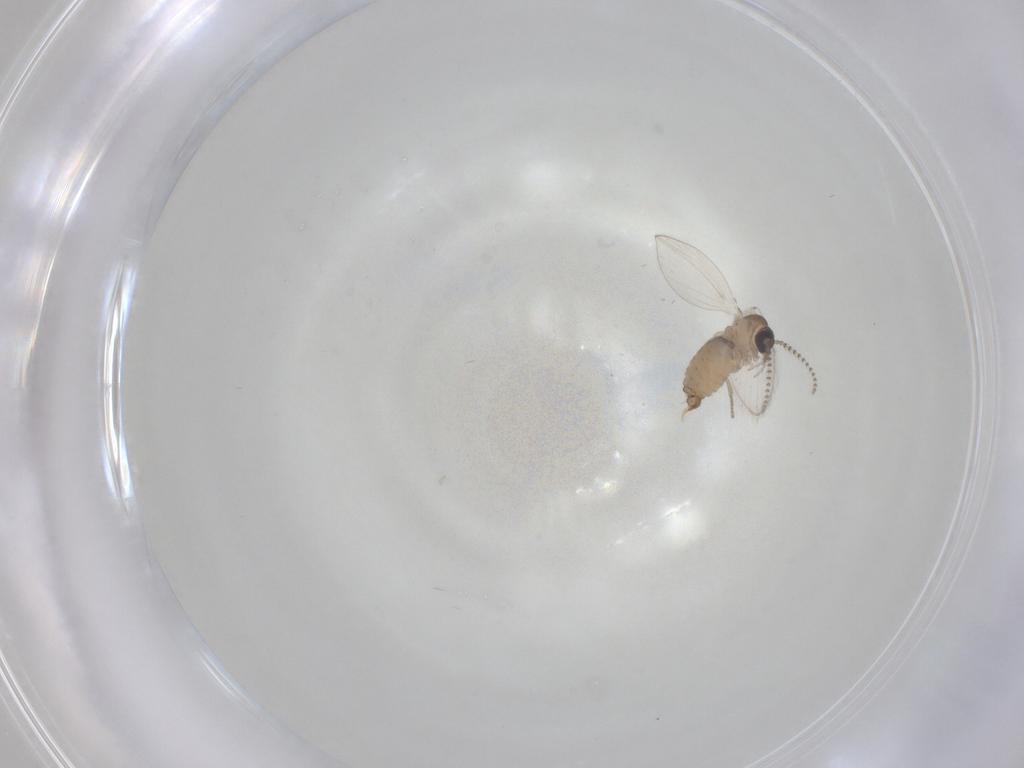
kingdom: Animalia
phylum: Arthropoda
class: Insecta
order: Diptera
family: Psychodidae
